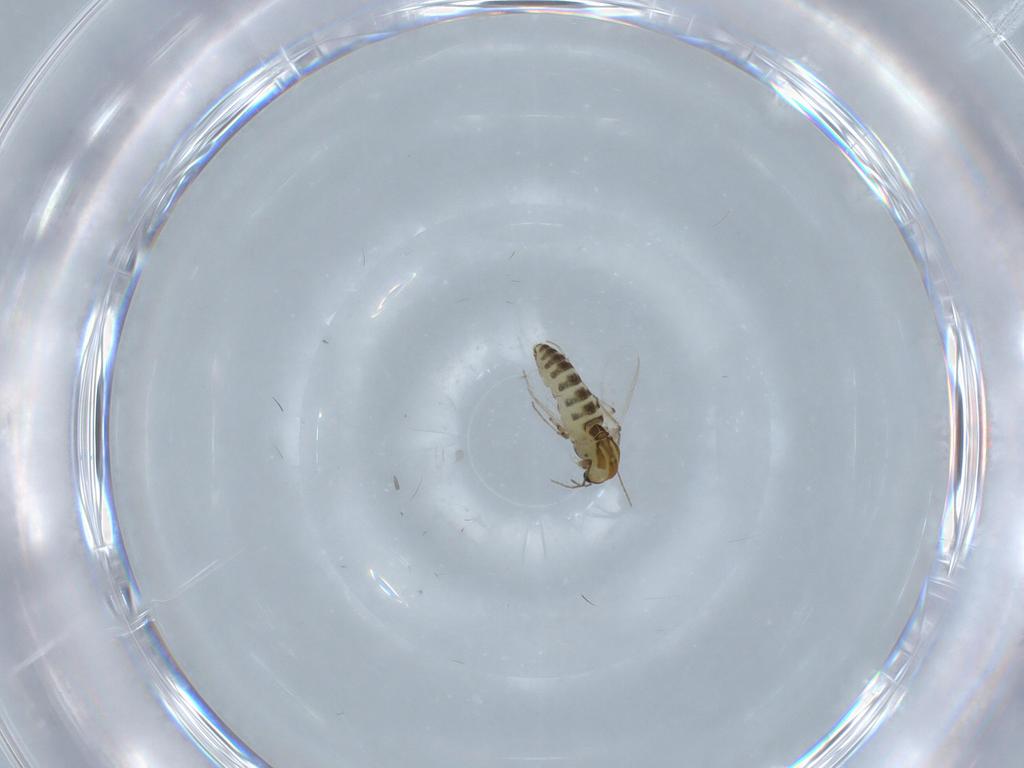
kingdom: Animalia
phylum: Arthropoda
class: Insecta
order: Diptera
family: Chironomidae
